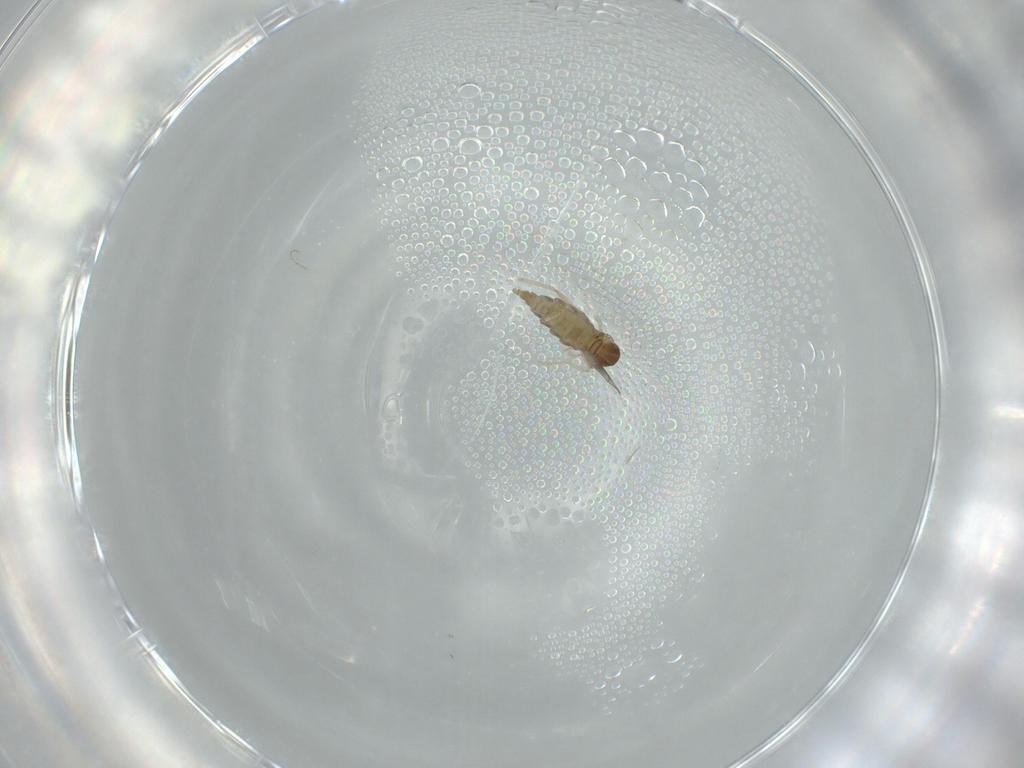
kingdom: Animalia
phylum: Arthropoda
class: Insecta
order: Diptera
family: Cecidomyiidae
